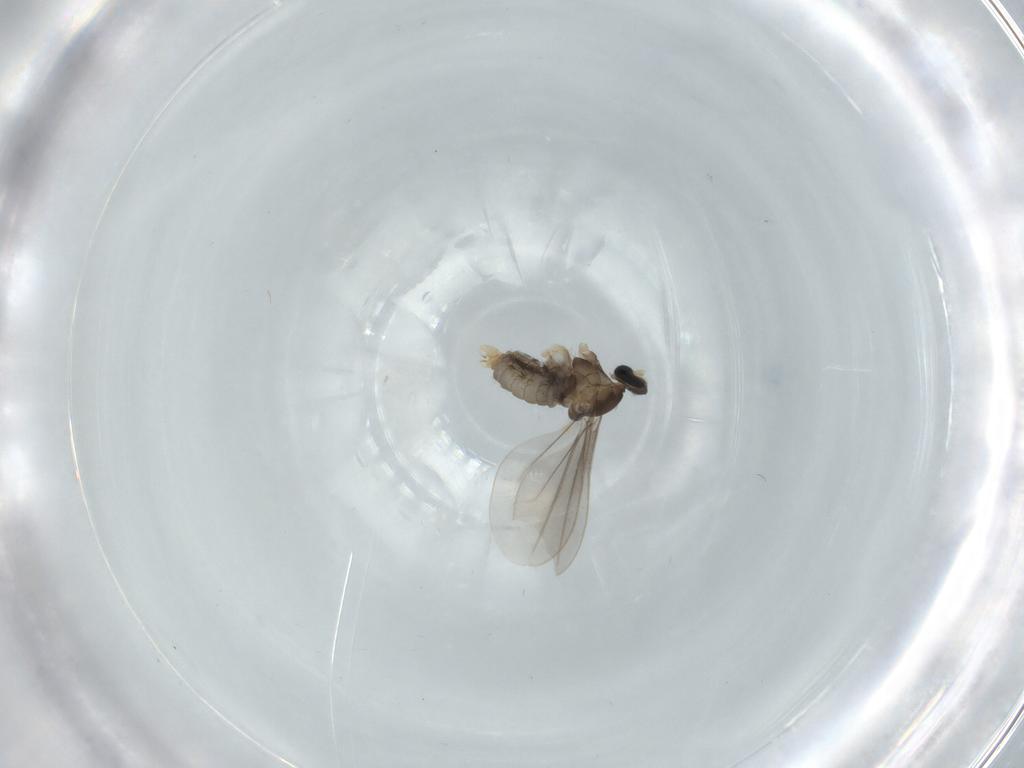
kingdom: Animalia
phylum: Arthropoda
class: Insecta
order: Diptera
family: Cecidomyiidae
